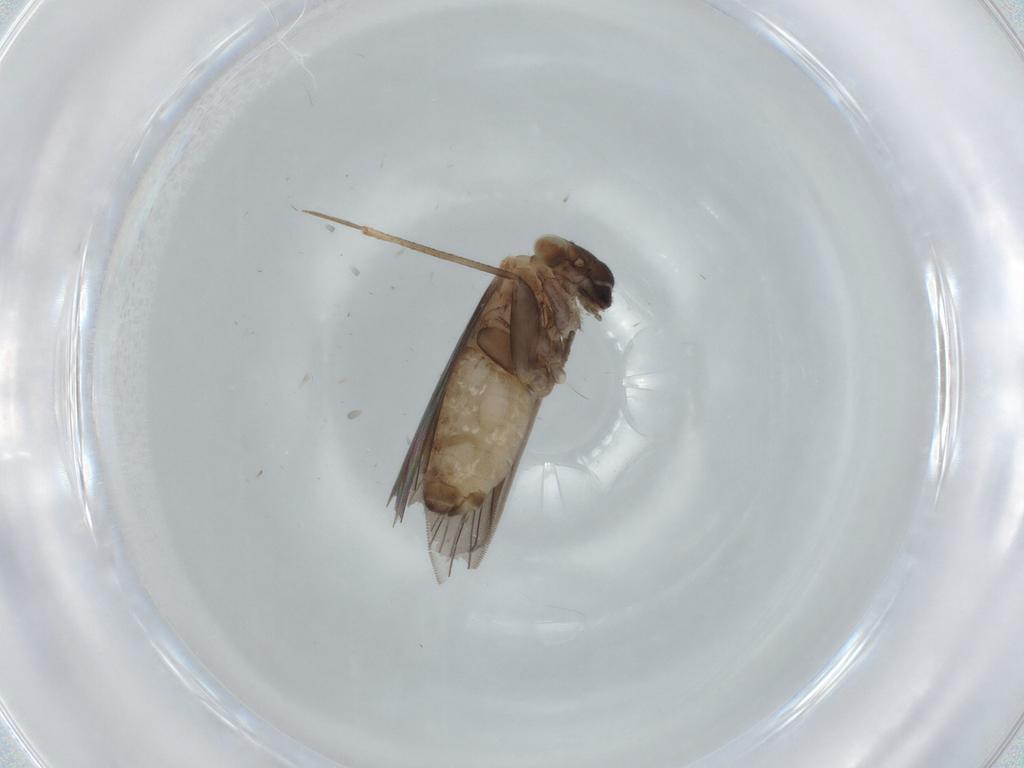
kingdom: Animalia
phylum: Arthropoda
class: Insecta
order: Psocodea
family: Lepidopsocidae
